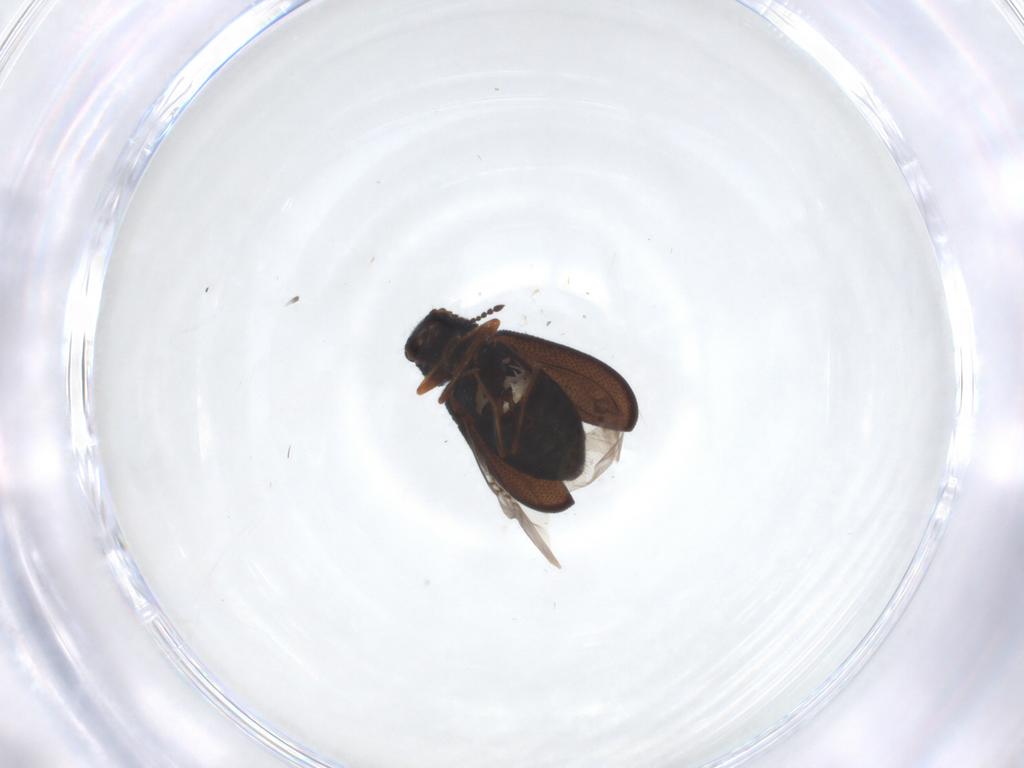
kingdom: Animalia
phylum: Arthropoda
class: Insecta
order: Coleoptera
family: Melyridae
